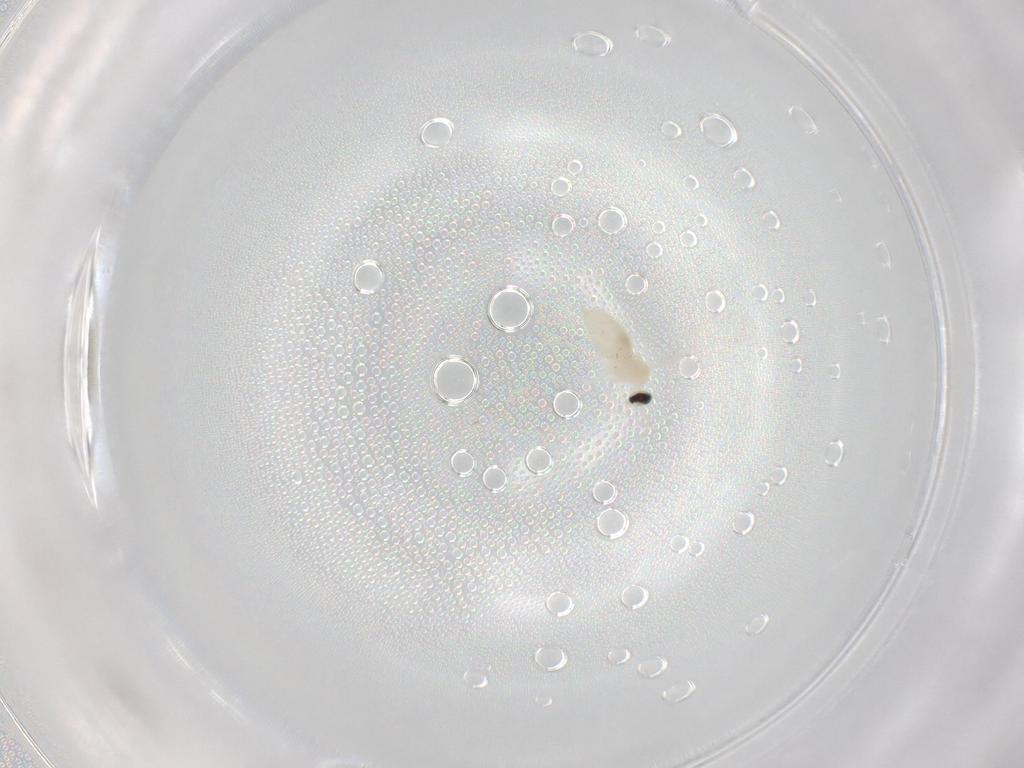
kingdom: Animalia
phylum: Arthropoda
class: Insecta
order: Diptera
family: Cecidomyiidae
